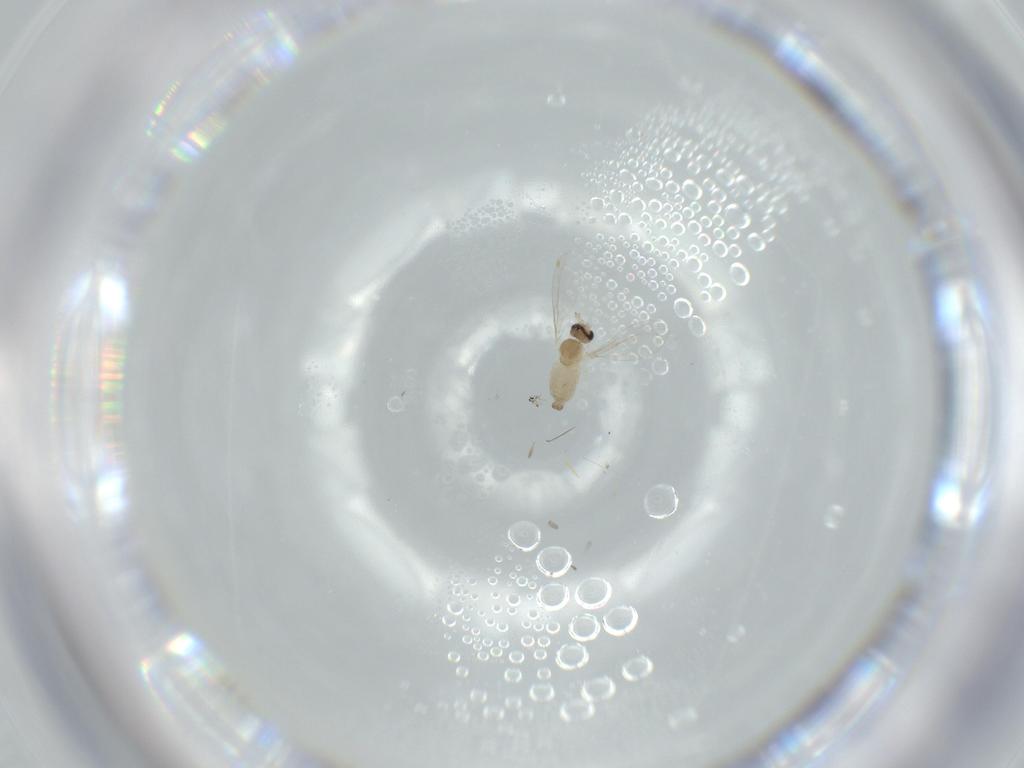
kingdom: Animalia
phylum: Arthropoda
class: Insecta
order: Diptera
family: Cecidomyiidae
